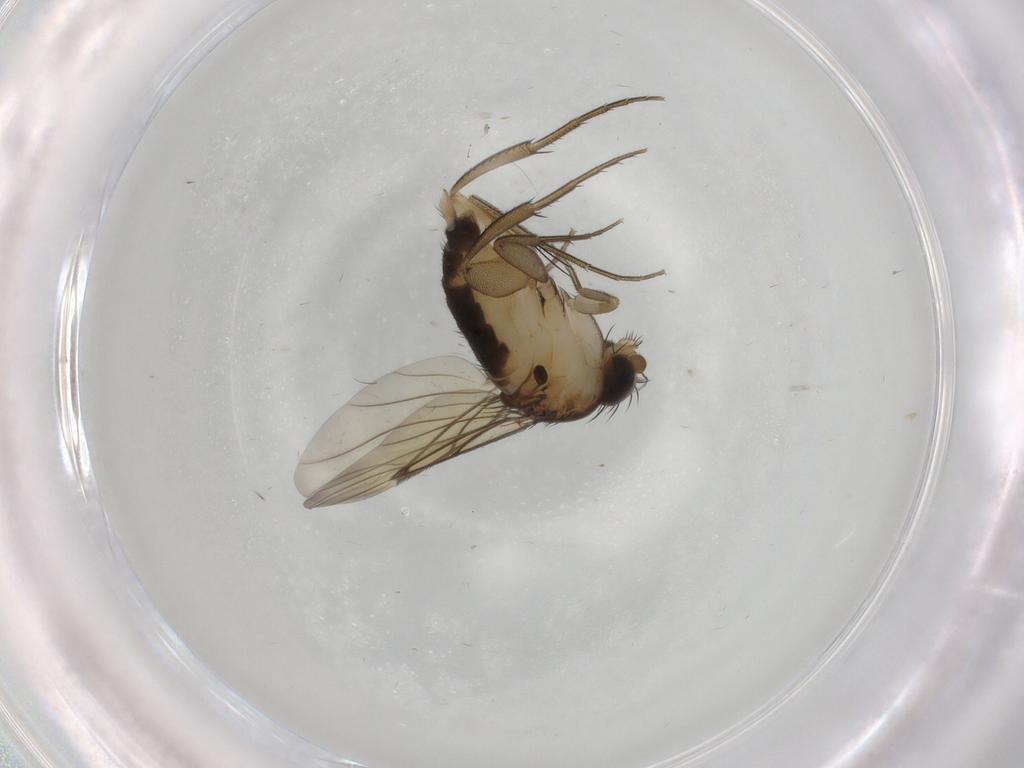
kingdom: Animalia
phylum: Arthropoda
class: Insecta
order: Diptera
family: Phoridae
